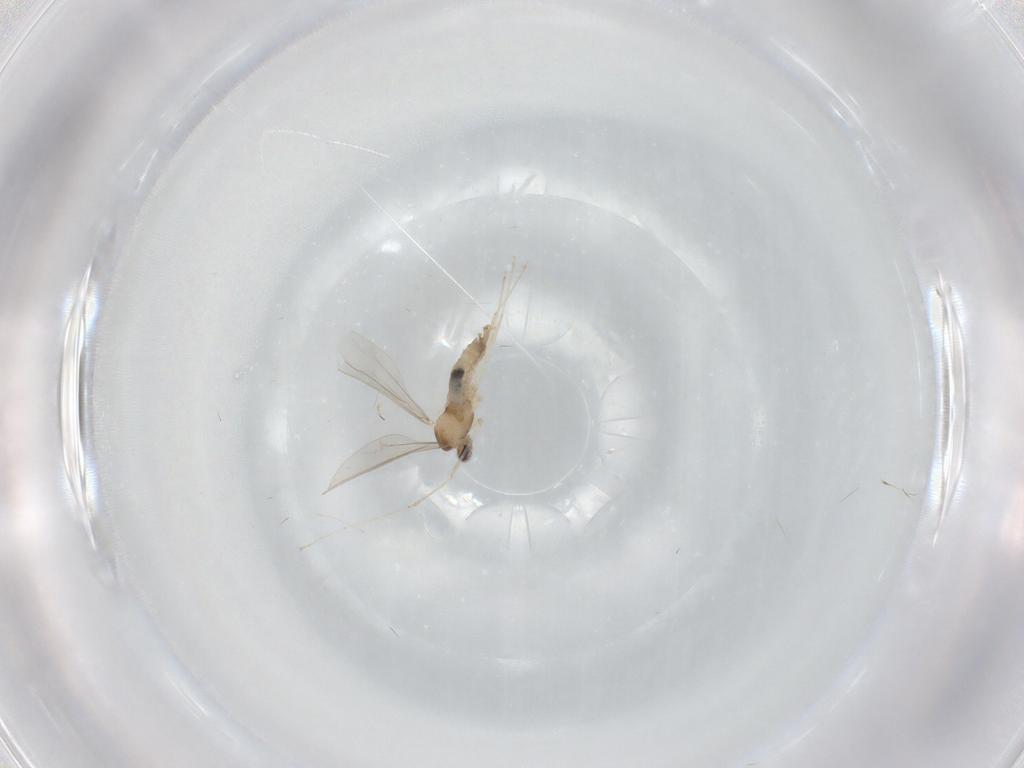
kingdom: Animalia
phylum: Arthropoda
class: Insecta
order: Diptera
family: Cecidomyiidae
